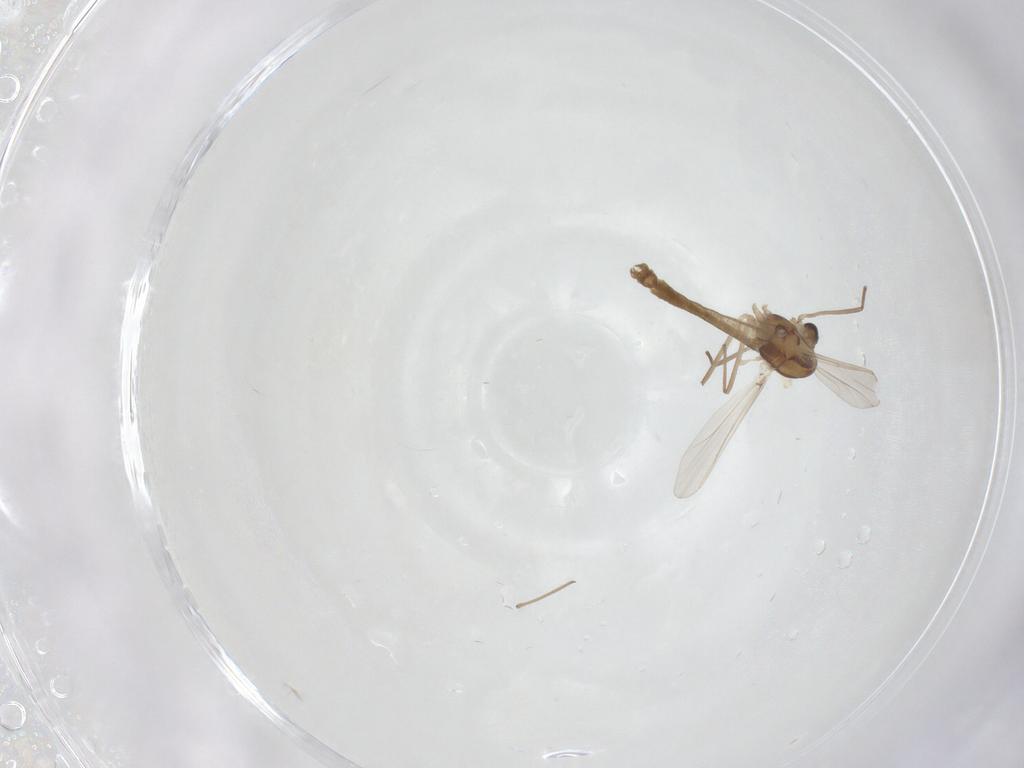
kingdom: Animalia
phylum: Arthropoda
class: Insecta
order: Diptera
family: Chironomidae
